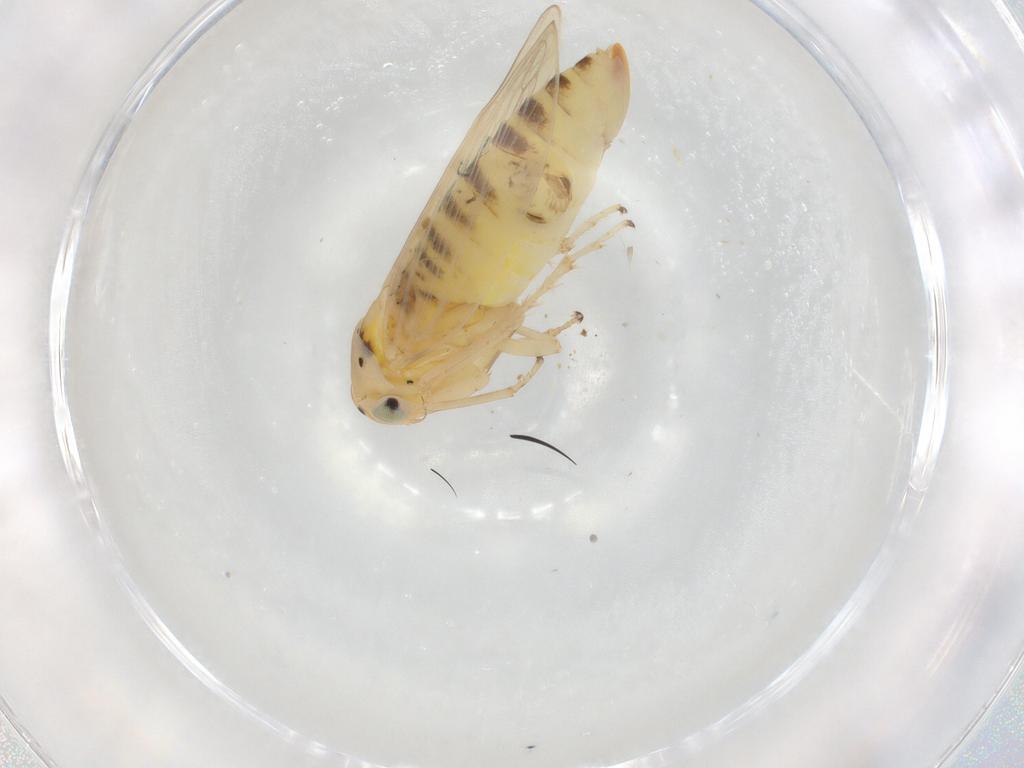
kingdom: Animalia
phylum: Arthropoda
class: Insecta
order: Hemiptera
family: Cicadellidae
